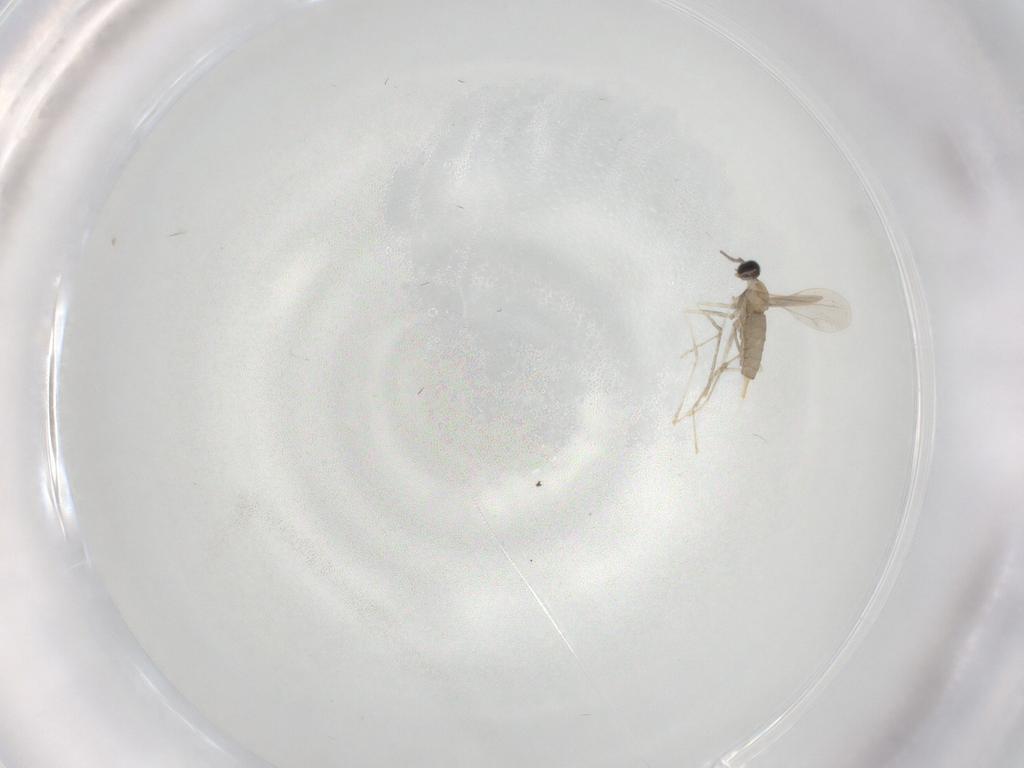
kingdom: Animalia
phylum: Arthropoda
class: Insecta
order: Diptera
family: Cecidomyiidae
